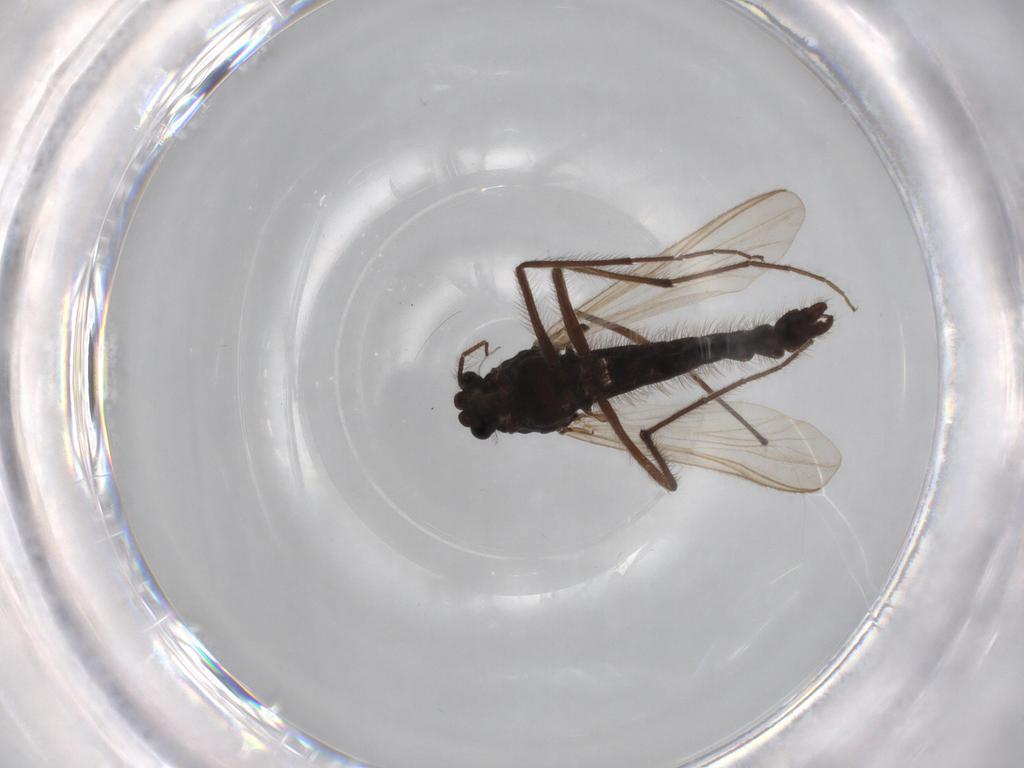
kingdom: Animalia
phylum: Arthropoda
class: Insecta
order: Diptera
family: Chironomidae
